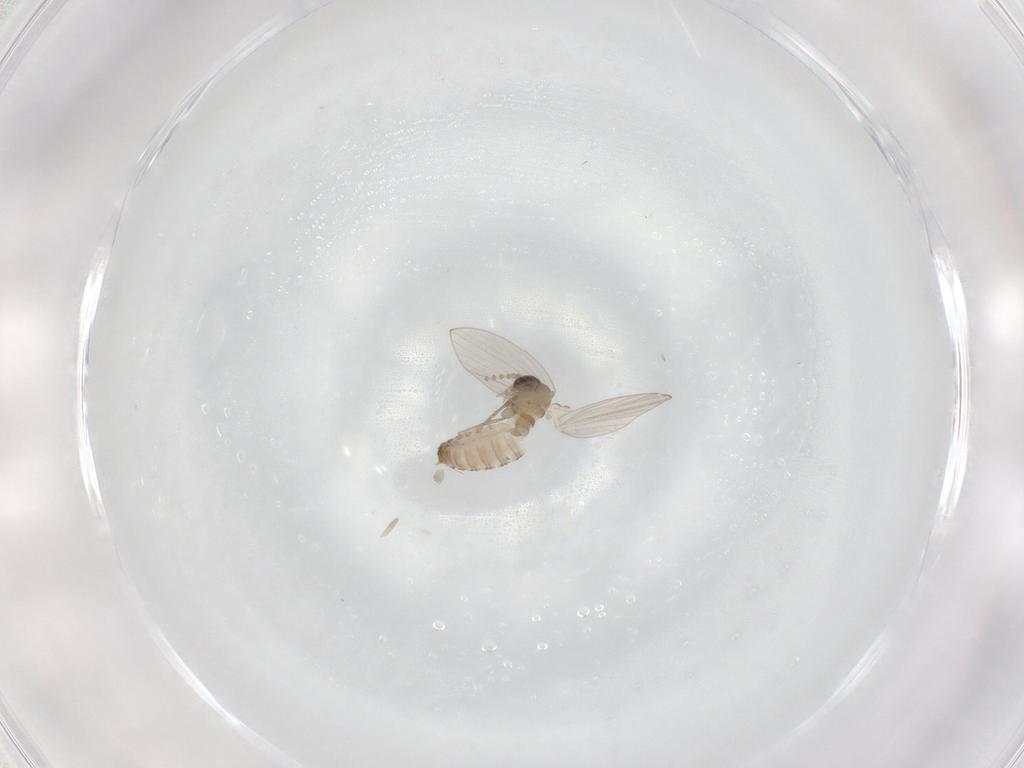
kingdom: Animalia
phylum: Arthropoda
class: Insecta
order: Diptera
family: Psychodidae
